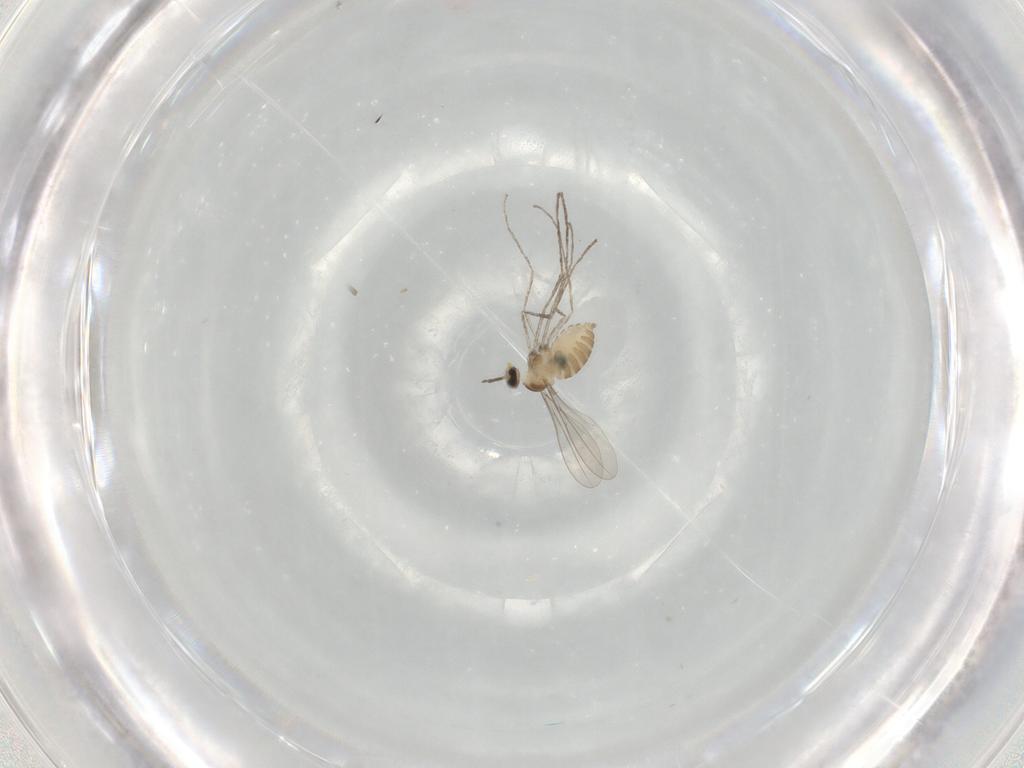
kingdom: Animalia
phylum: Arthropoda
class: Insecta
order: Diptera
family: Cecidomyiidae
